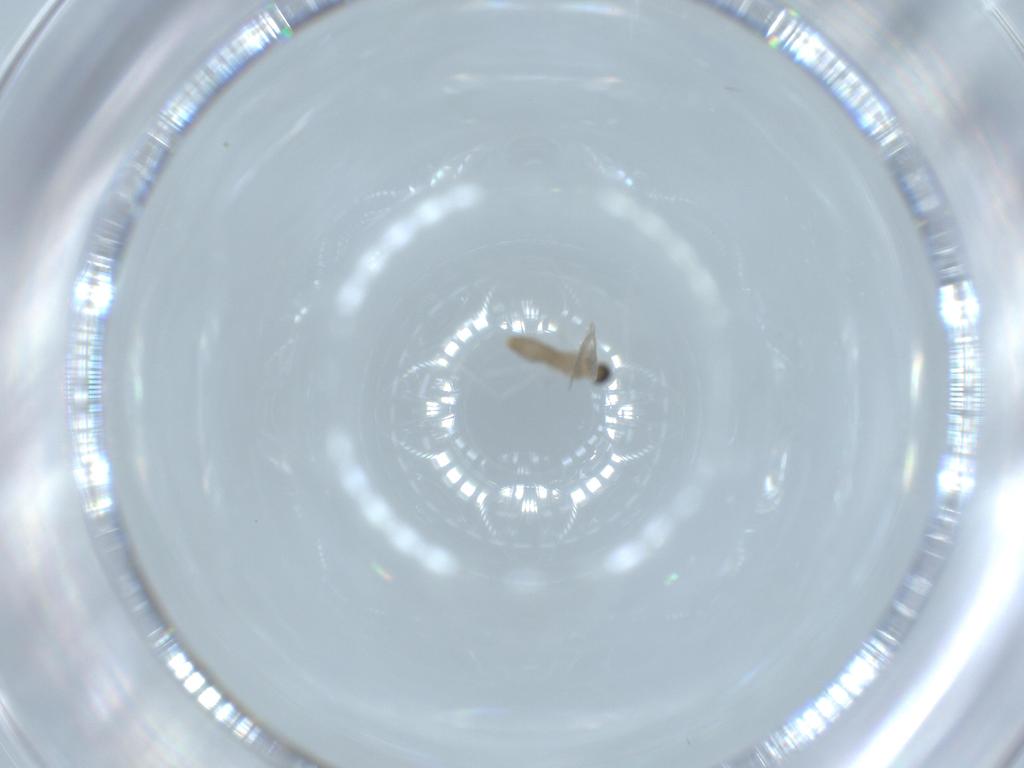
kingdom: Animalia
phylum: Arthropoda
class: Insecta
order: Diptera
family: Cecidomyiidae
